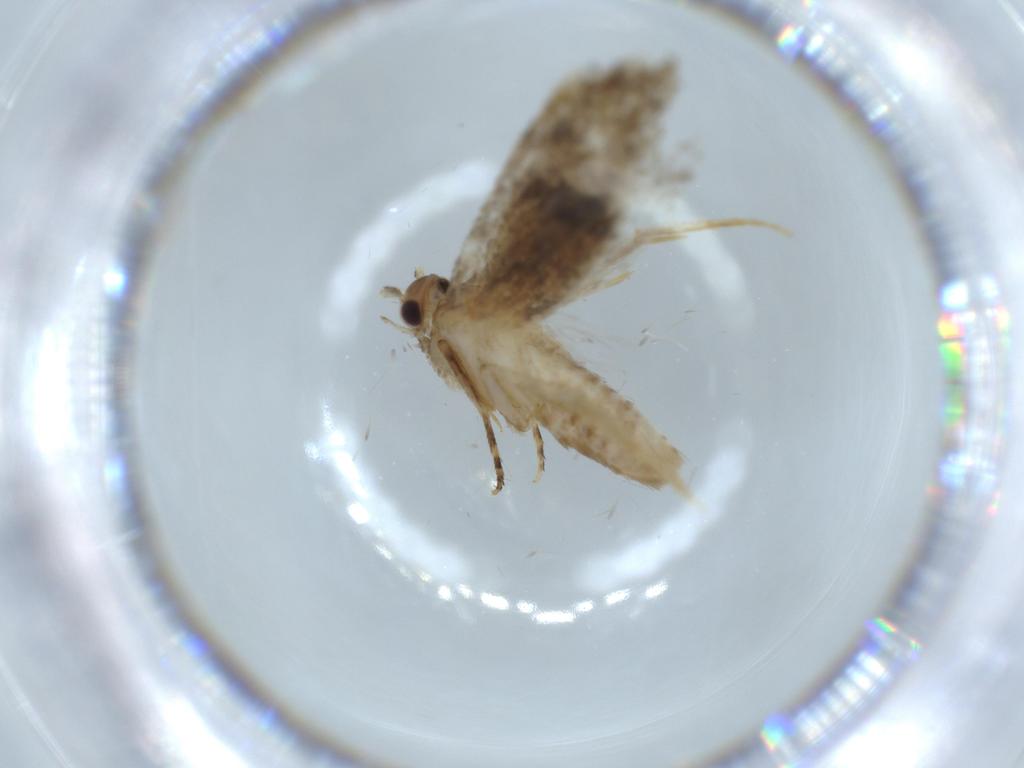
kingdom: Animalia
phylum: Arthropoda
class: Insecta
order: Lepidoptera
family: Tineidae
